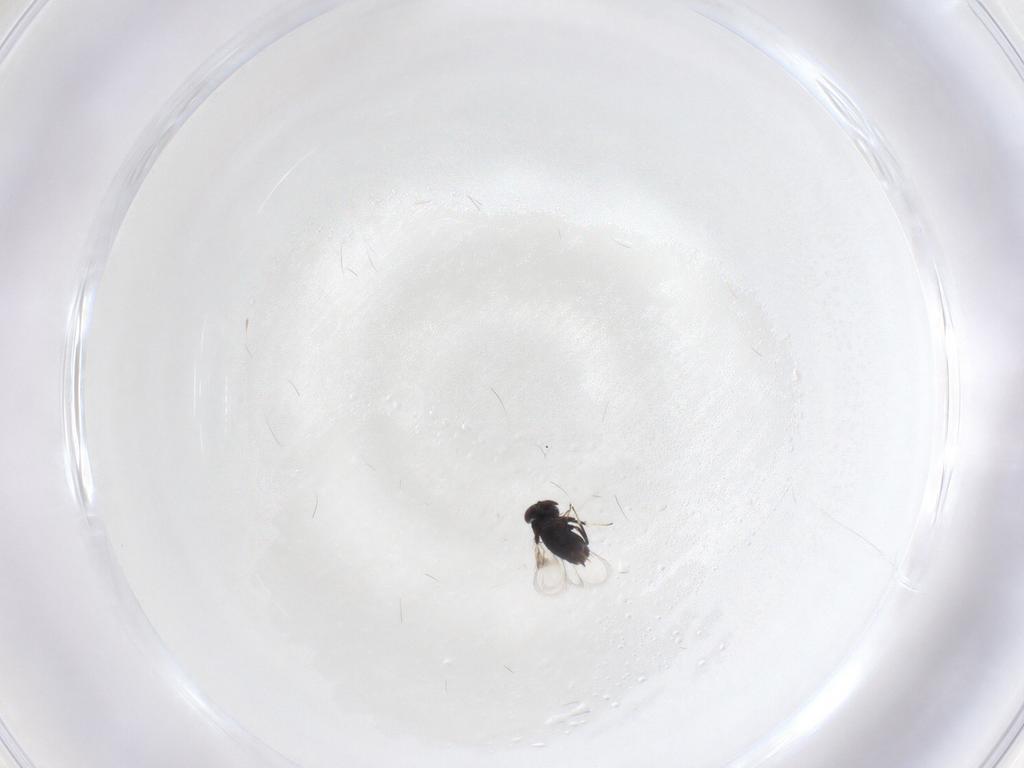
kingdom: Animalia
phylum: Arthropoda
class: Insecta
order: Hymenoptera
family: Signiphoridae
